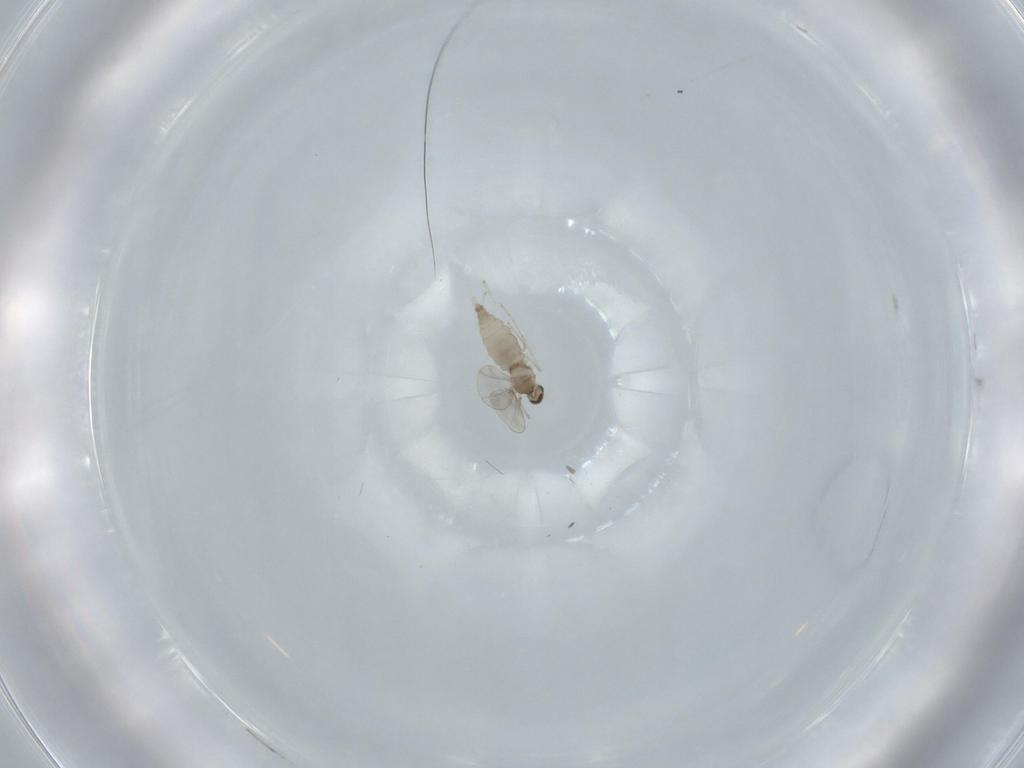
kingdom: Animalia
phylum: Arthropoda
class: Insecta
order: Diptera
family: Cecidomyiidae
